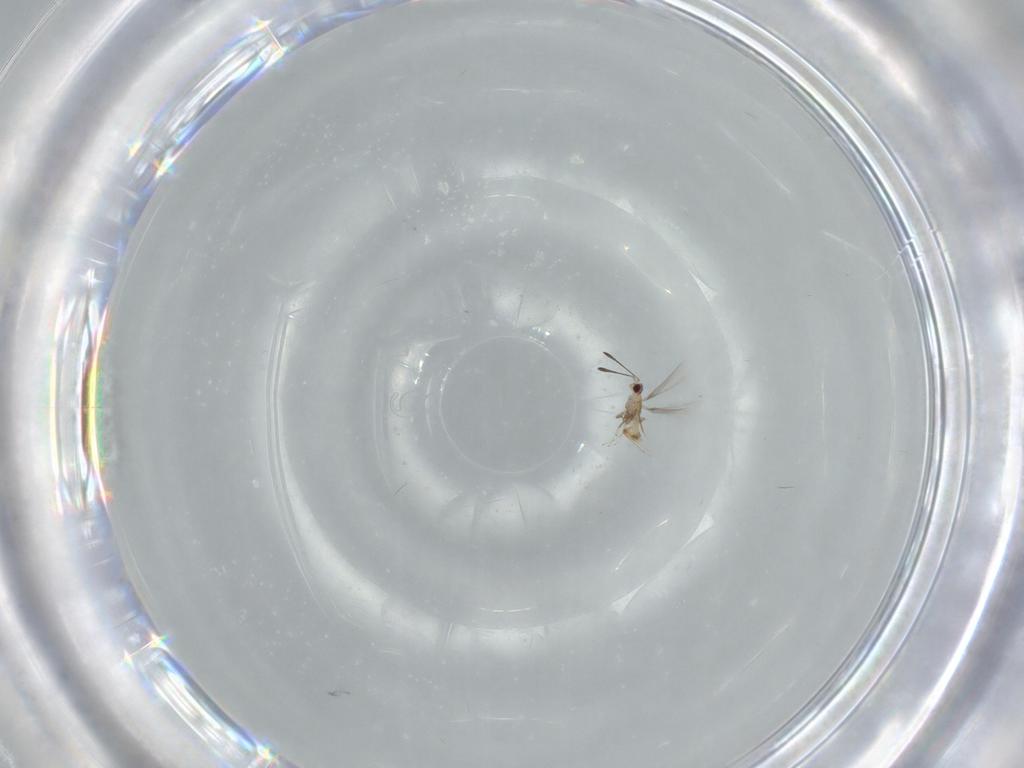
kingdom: Animalia
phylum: Arthropoda
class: Insecta
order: Hymenoptera
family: Mymaridae
